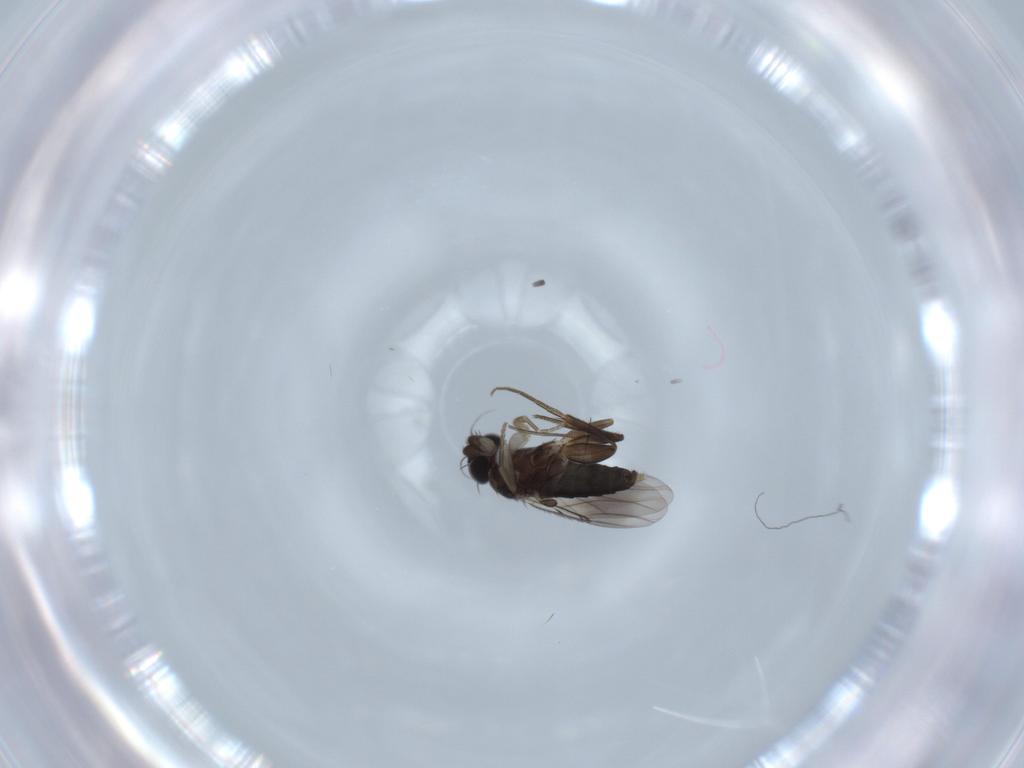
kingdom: Animalia
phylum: Arthropoda
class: Insecta
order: Diptera
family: Phoridae
